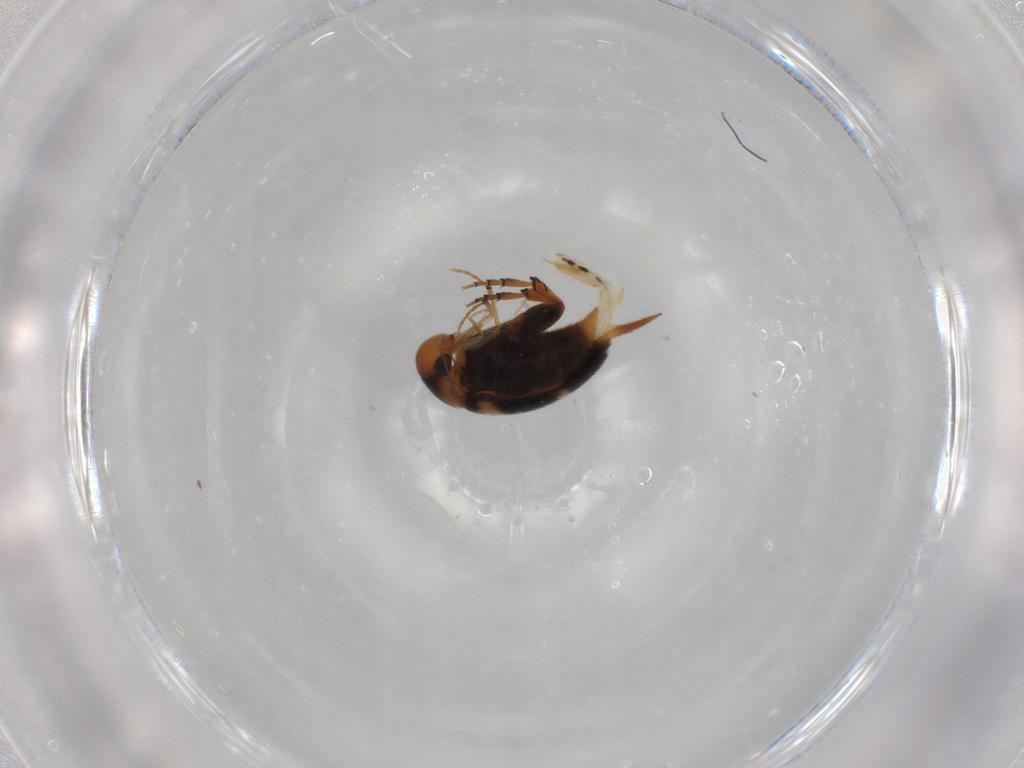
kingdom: Animalia
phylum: Arthropoda
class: Insecta
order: Coleoptera
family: Mordellidae
